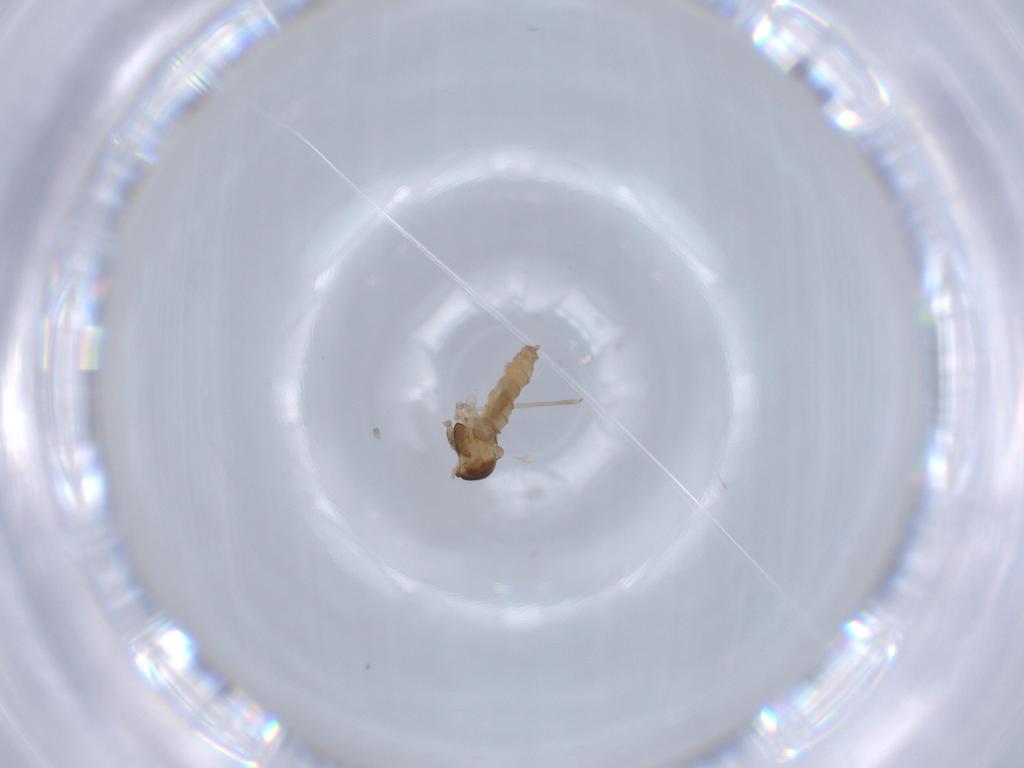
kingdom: Animalia
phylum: Arthropoda
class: Insecta
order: Diptera
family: Cecidomyiidae
